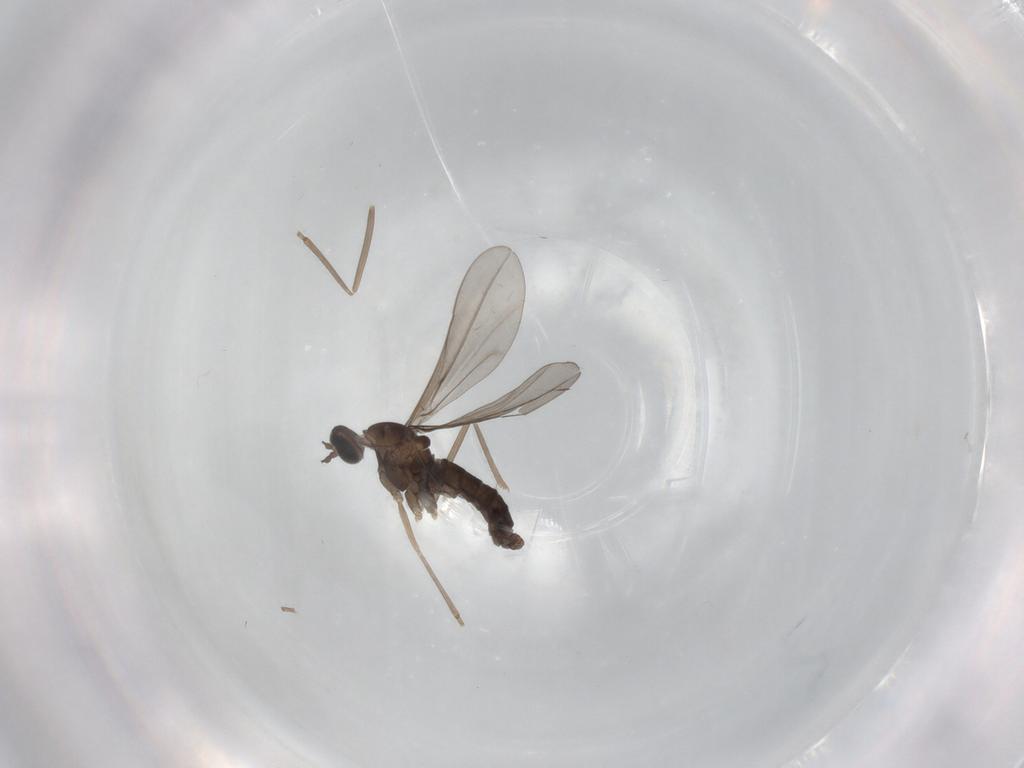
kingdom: Animalia
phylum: Arthropoda
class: Insecta
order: Diptera
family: Cecidomyiidae
